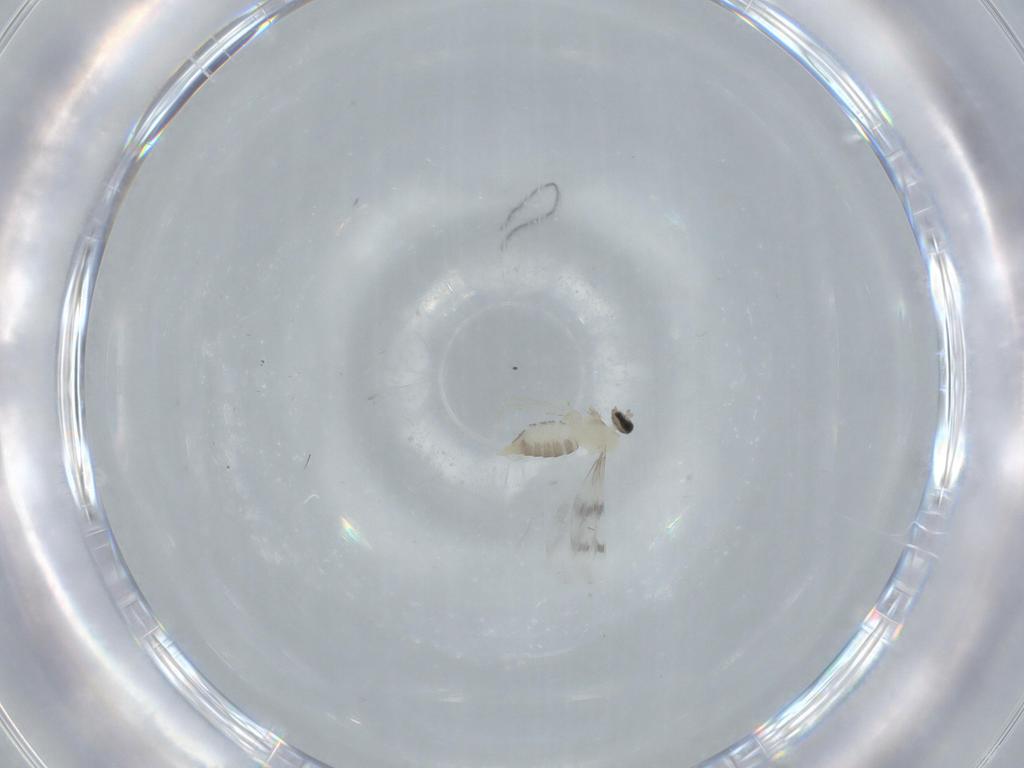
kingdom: Animalia
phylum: Arthropoda
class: Insecta
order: Diptera
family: Cecidomyiidae
